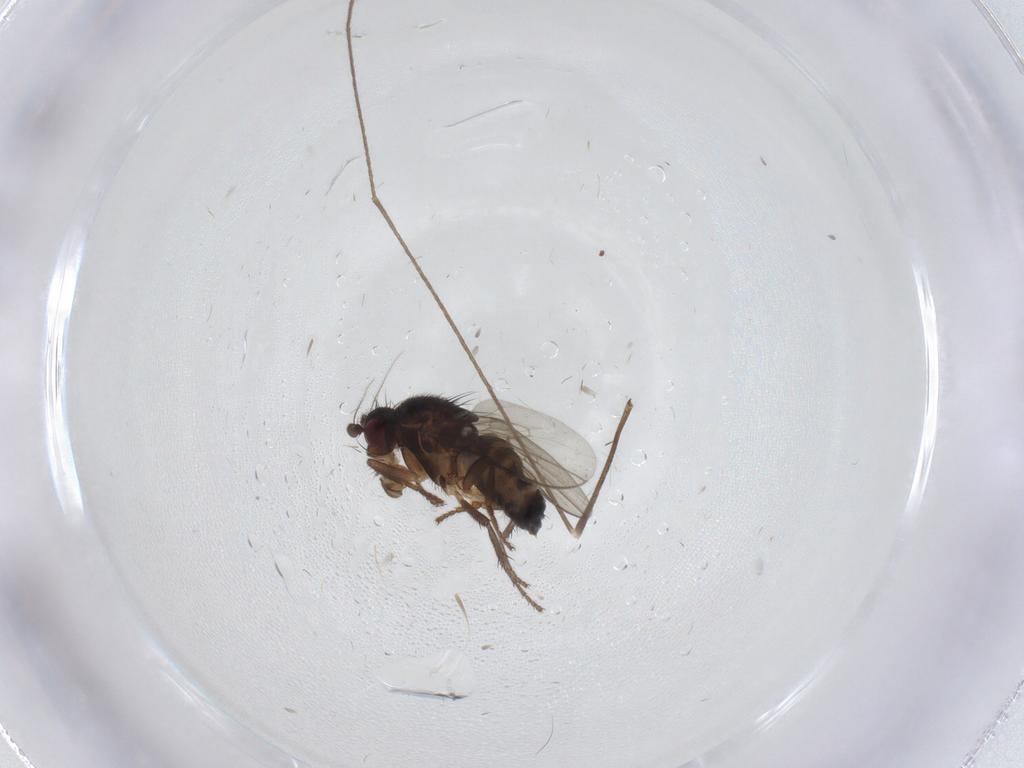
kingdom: Animalia
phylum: Arthropoda
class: Insecta
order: Diptera
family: Limoniidae
